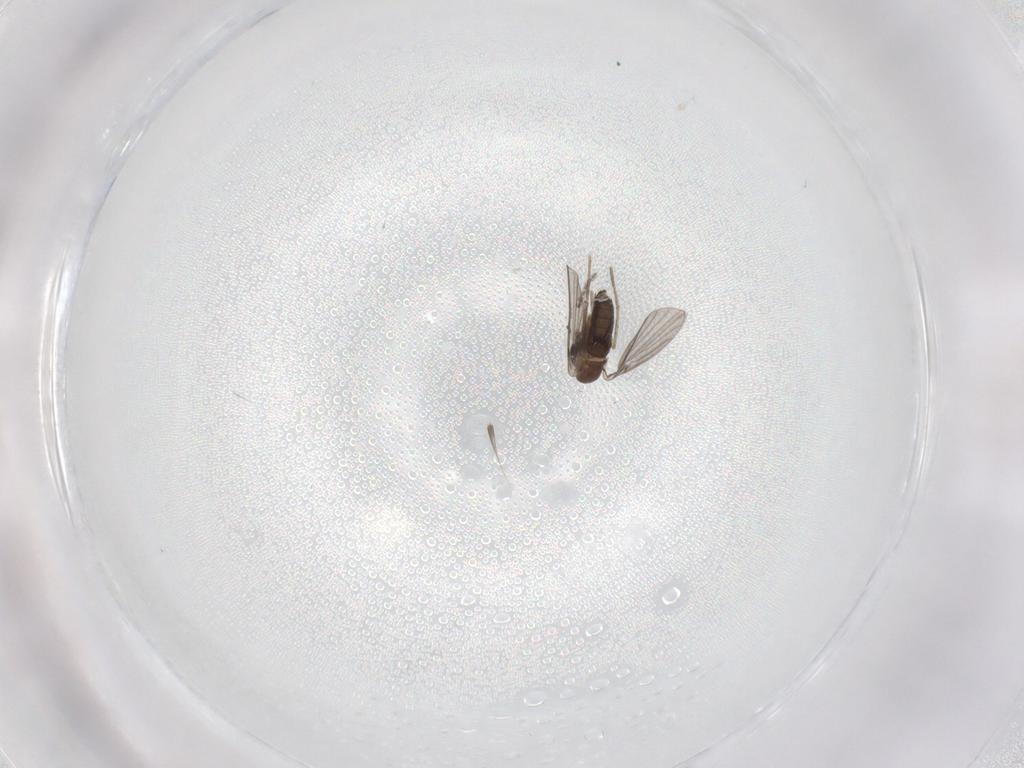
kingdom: Animalia
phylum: Arthropoda
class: Insecta
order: Diptera
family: Cecidomyiidae
